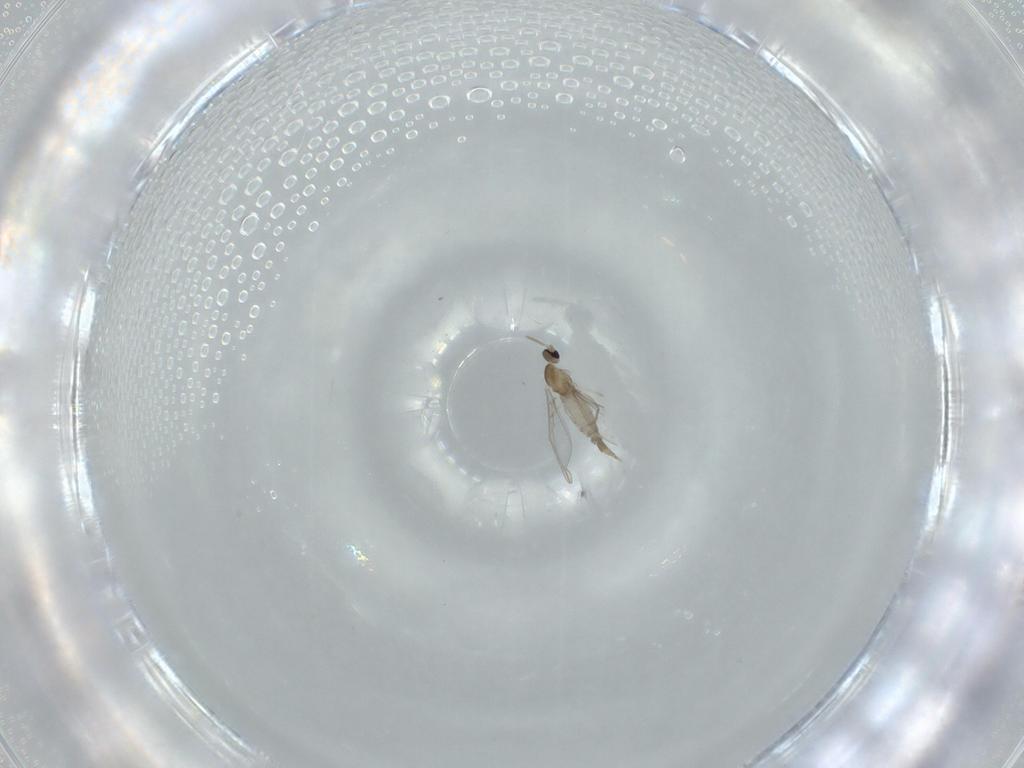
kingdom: Animalia
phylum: Arthropoda
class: Insecta
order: Diptera
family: Cecidomyiidae
